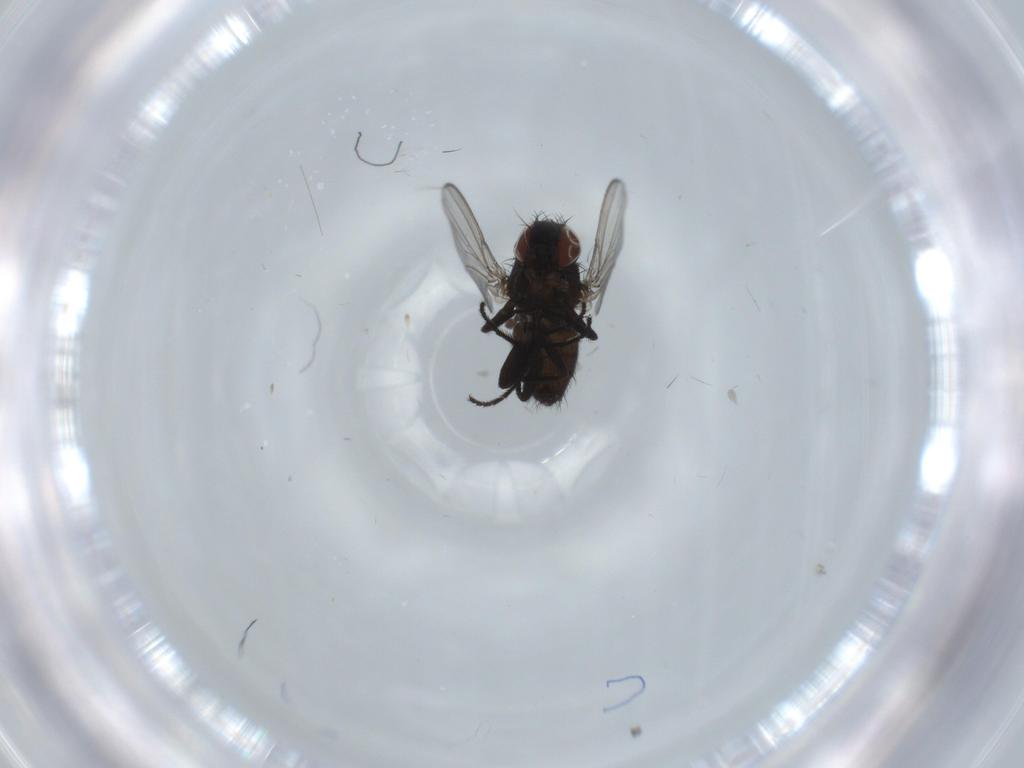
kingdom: Animalia
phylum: Arthropoda
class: Insecta
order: Diptera
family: Milichiidae
